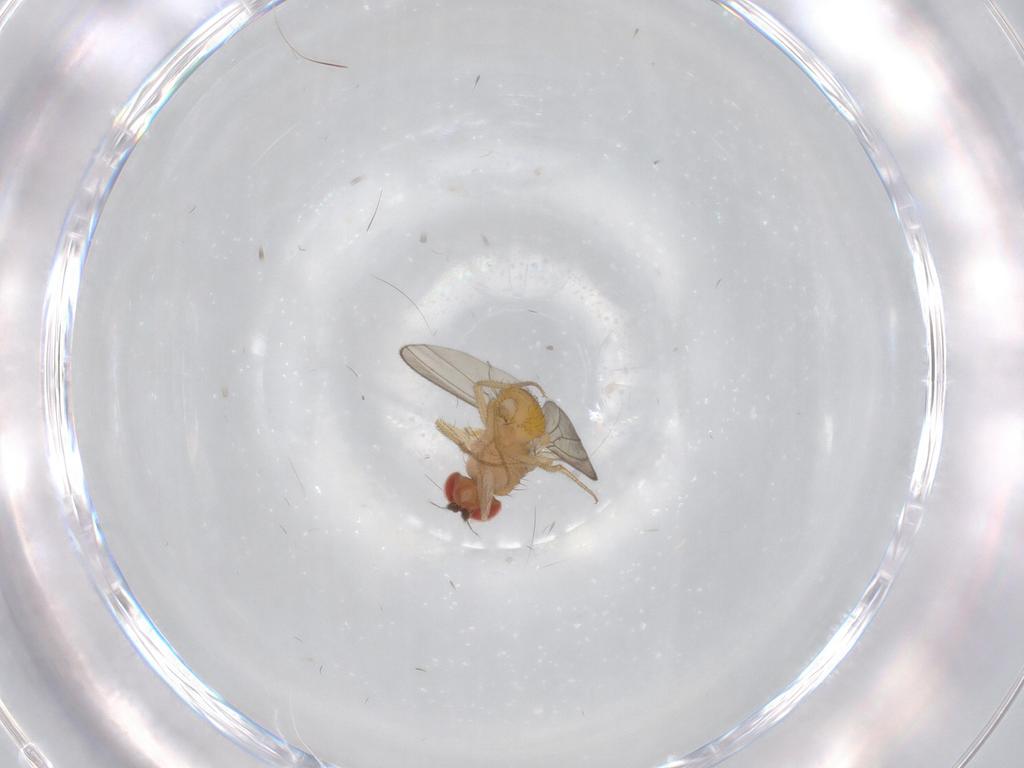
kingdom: Animalia
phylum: Arthropoda
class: Insecta
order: Diptera
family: Drosophilidae
